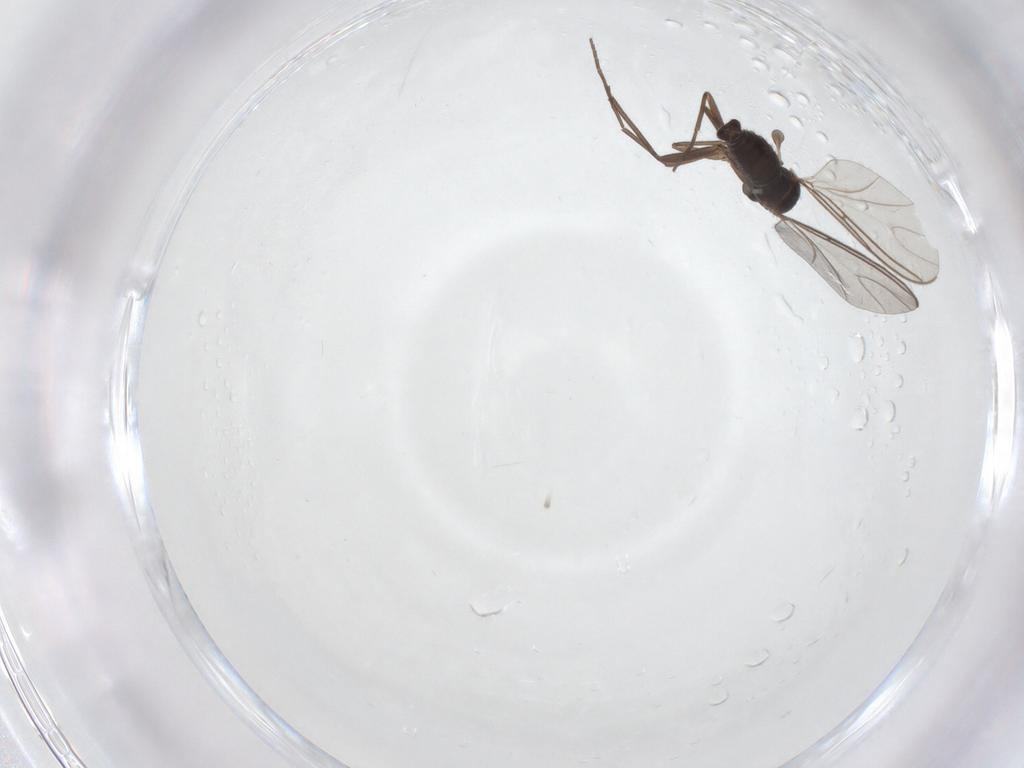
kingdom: Animalia
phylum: Arthropoda
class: Insecta
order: Diptera
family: Sciaridae
